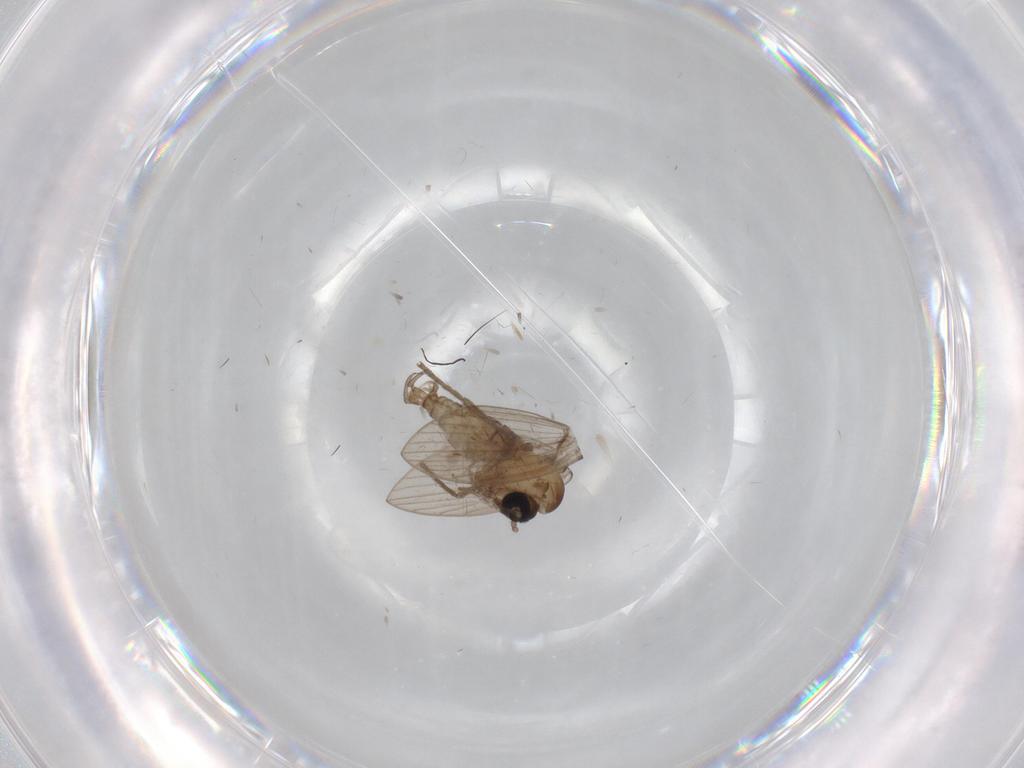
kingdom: Animalia
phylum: Arthropoda
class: Insecta
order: Diptera
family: Psychodidae
